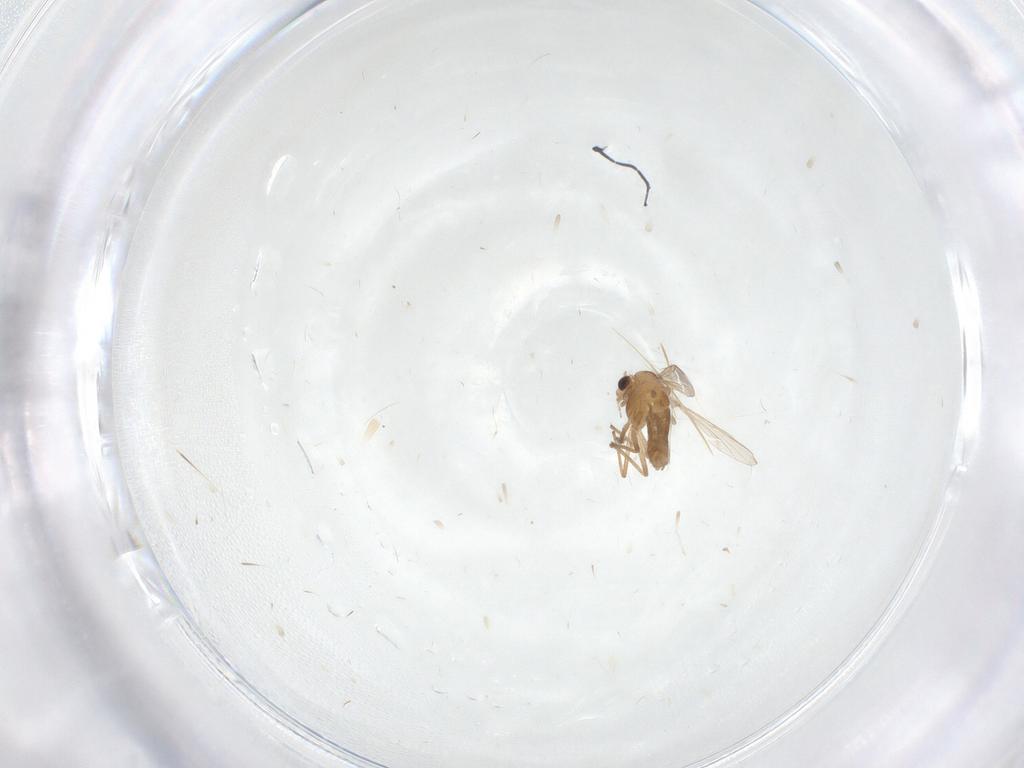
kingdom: Animalia
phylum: Arthropoda
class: Insecta
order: Diptera
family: Chironomidae
